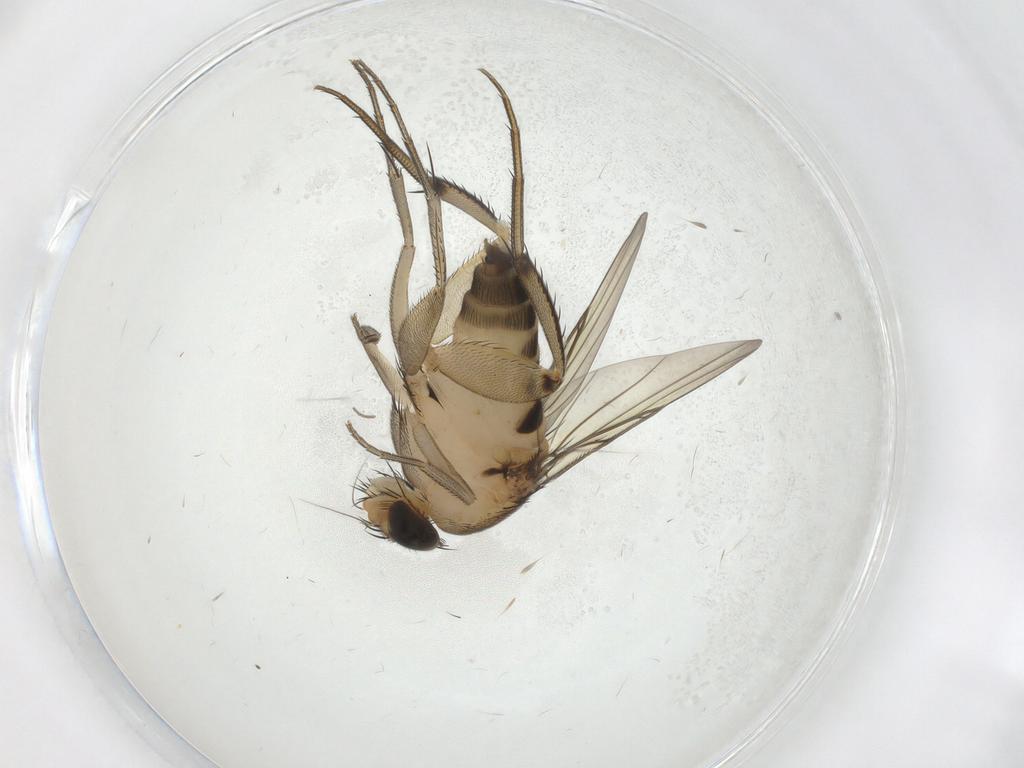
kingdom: Animalia
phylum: Arthropoda
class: Insecta
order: Diptera
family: Phoridae
